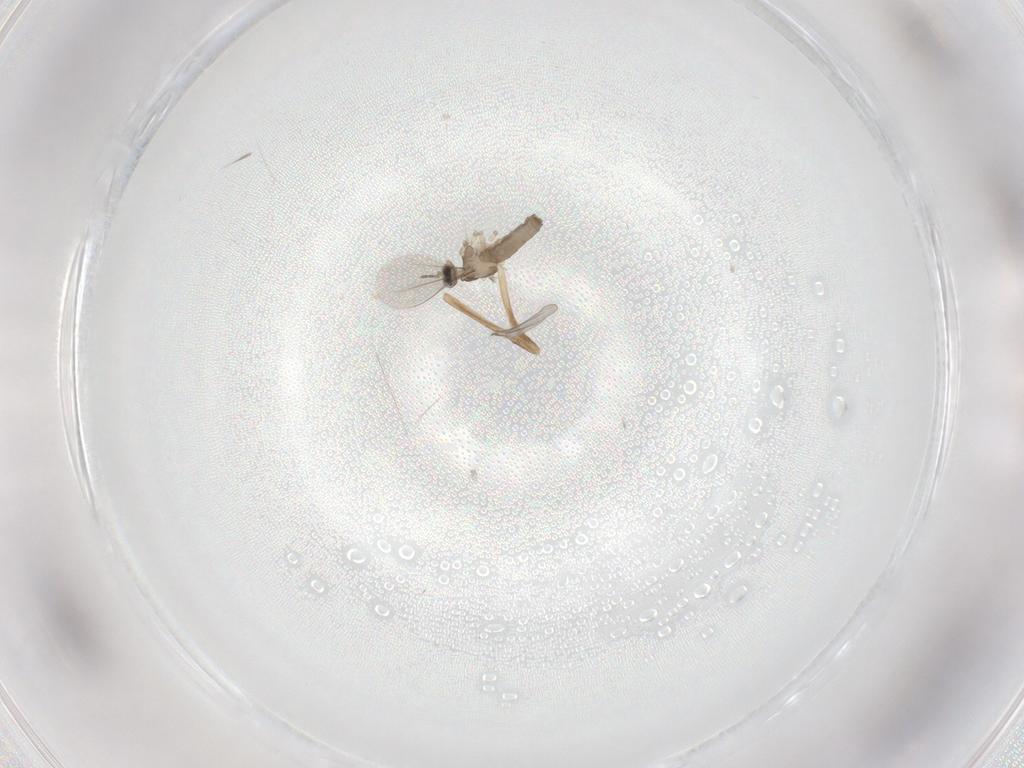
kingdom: Animalia
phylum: Arthropoda
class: Insecta
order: Diptera
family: Cecidomyiidae
